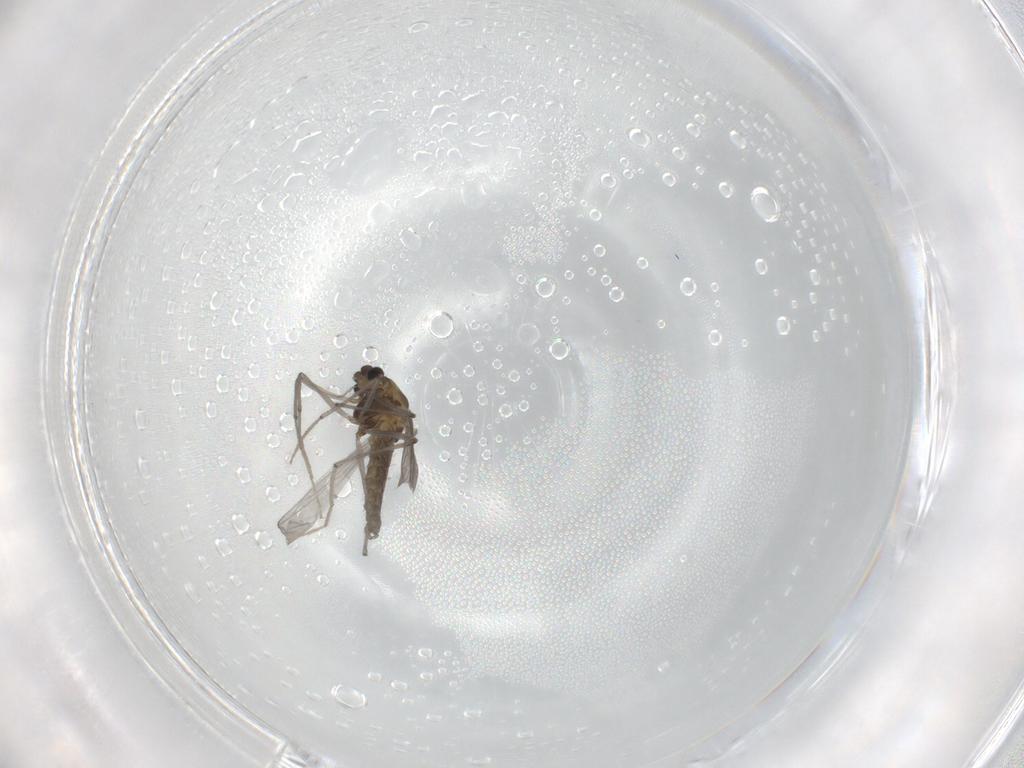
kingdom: Animalia
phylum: Arthropoda
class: Insecta
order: Diptera
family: Chironomidae
